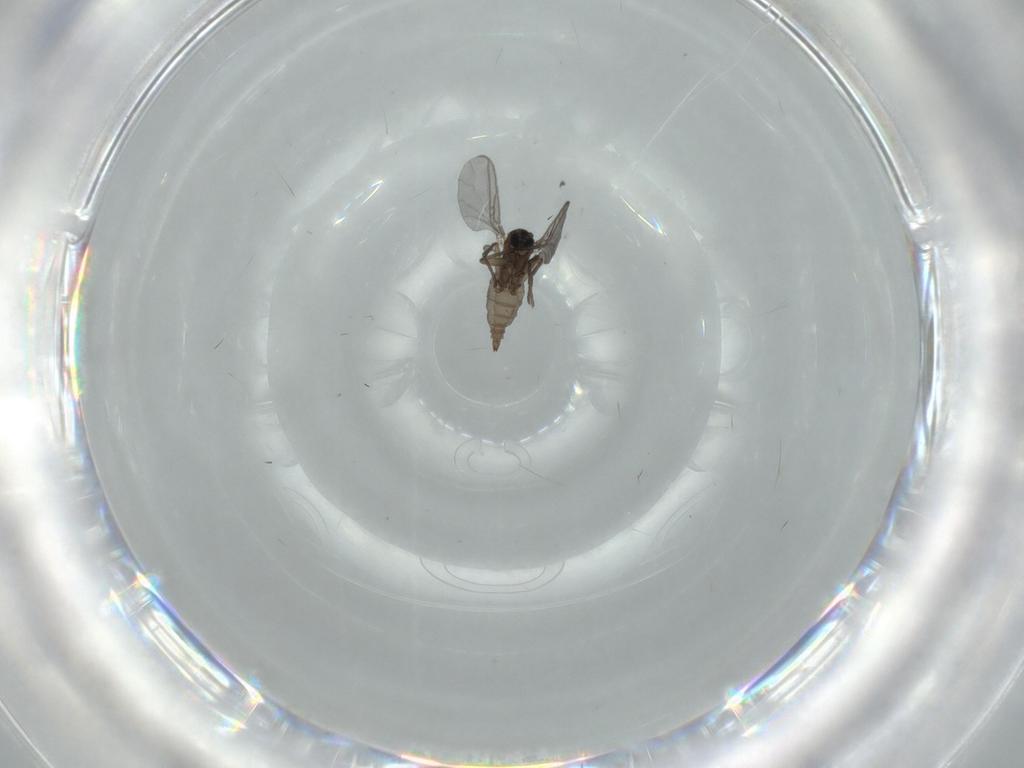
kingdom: Animalia
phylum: Arthropoda
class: Insecta
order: Diptera
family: Sciaridae
